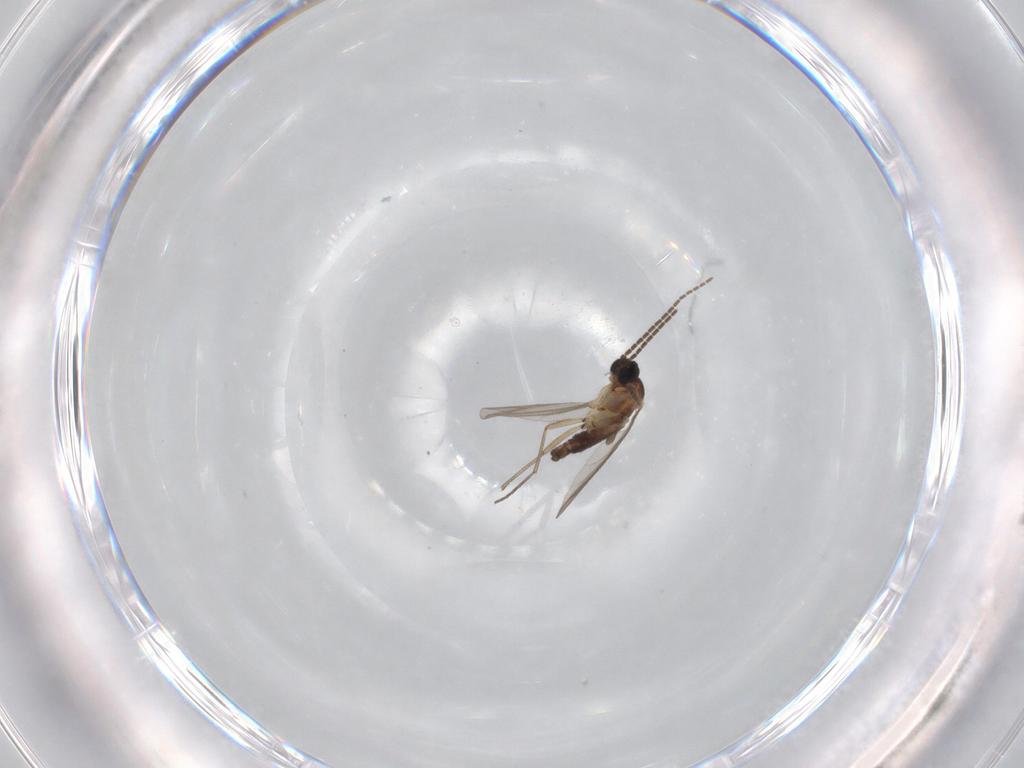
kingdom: Animalia
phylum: Arthropoda
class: Insecta
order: Diptera
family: Sciaridae
